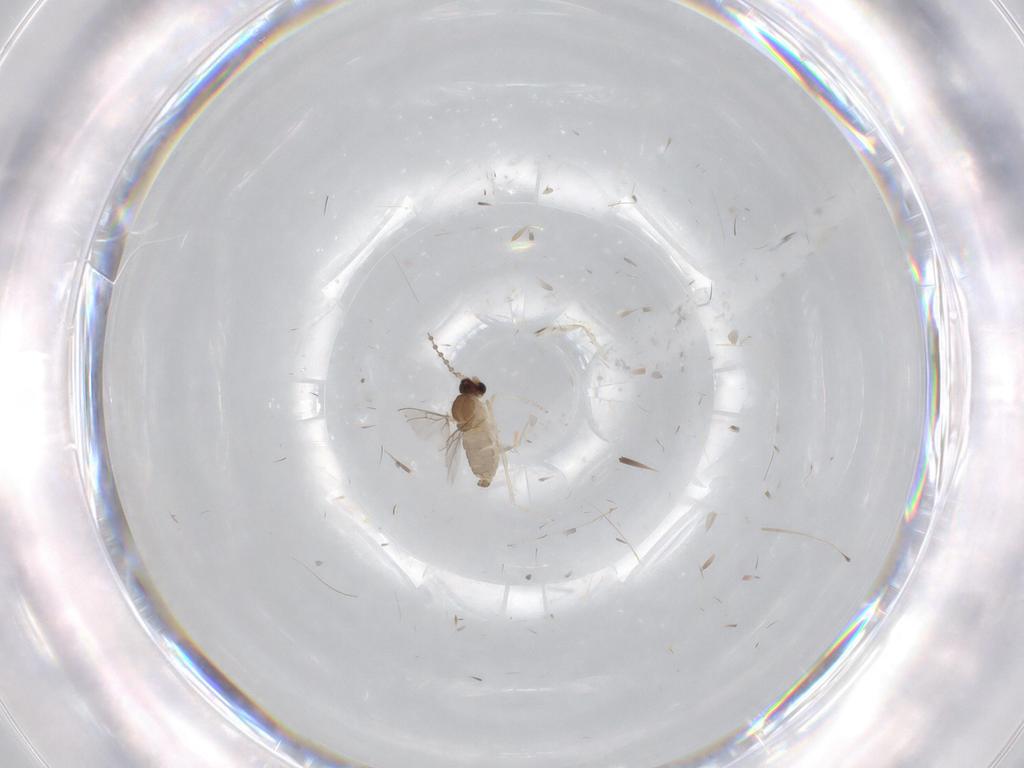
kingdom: Animalia
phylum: Arthropoda
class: Insecta
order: Diptera
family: Cecidomyiidae
